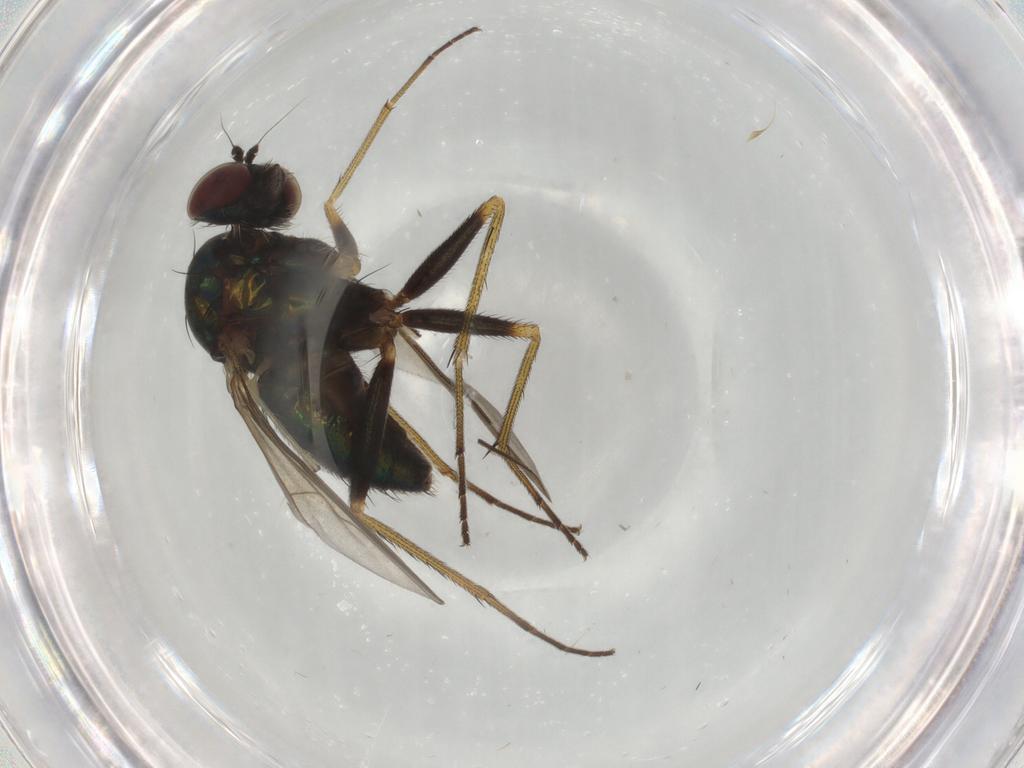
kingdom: Animalia
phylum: Arthropoda
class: Insecta
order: Diptera
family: Dolichopodidae
